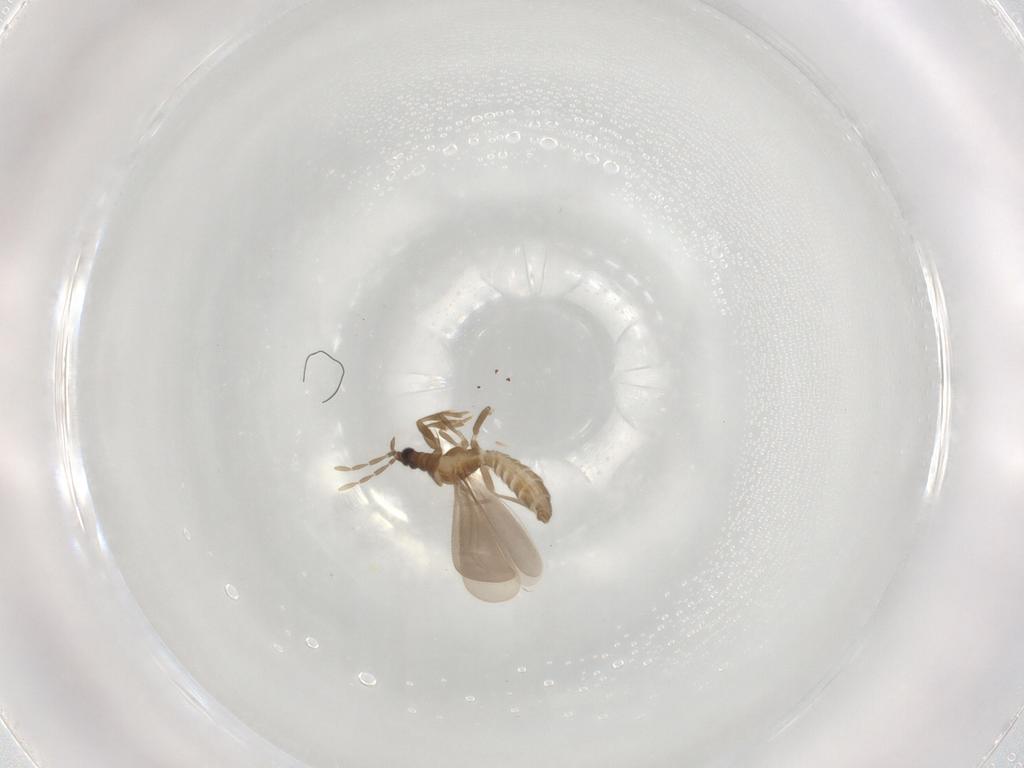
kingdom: Animalia
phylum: Arthropoda
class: Insecta
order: Hemiptera
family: Enicocephalidae
